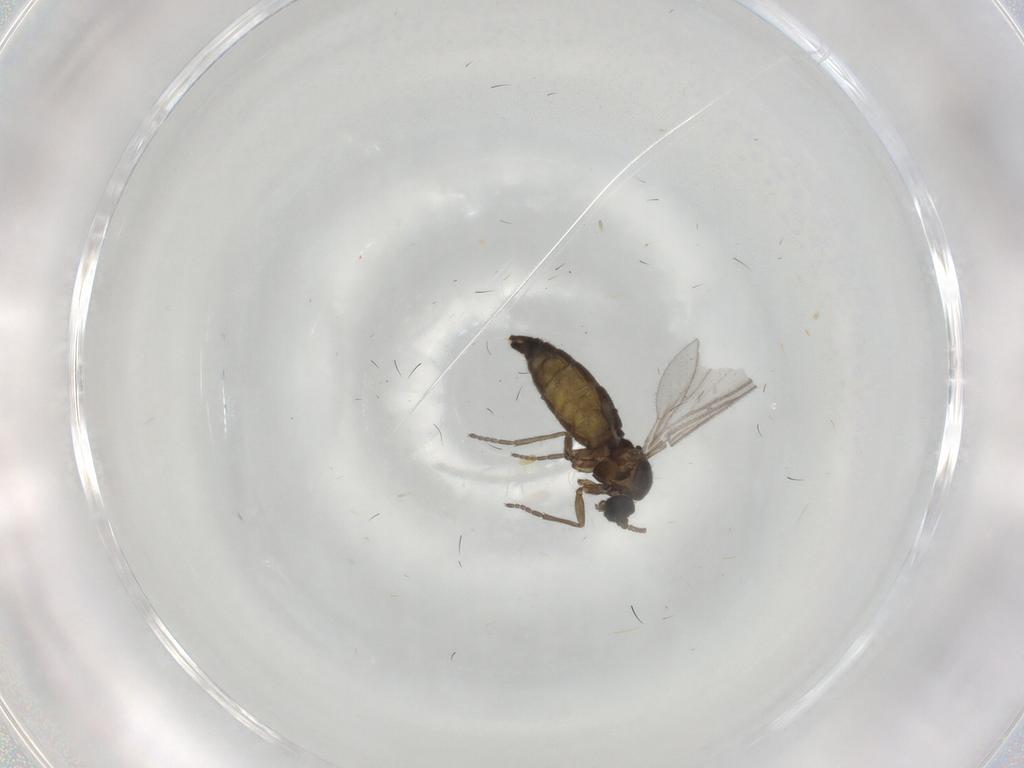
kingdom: Animalia
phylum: Arthropoda
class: Insecta
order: Diptera
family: Sciaridae
